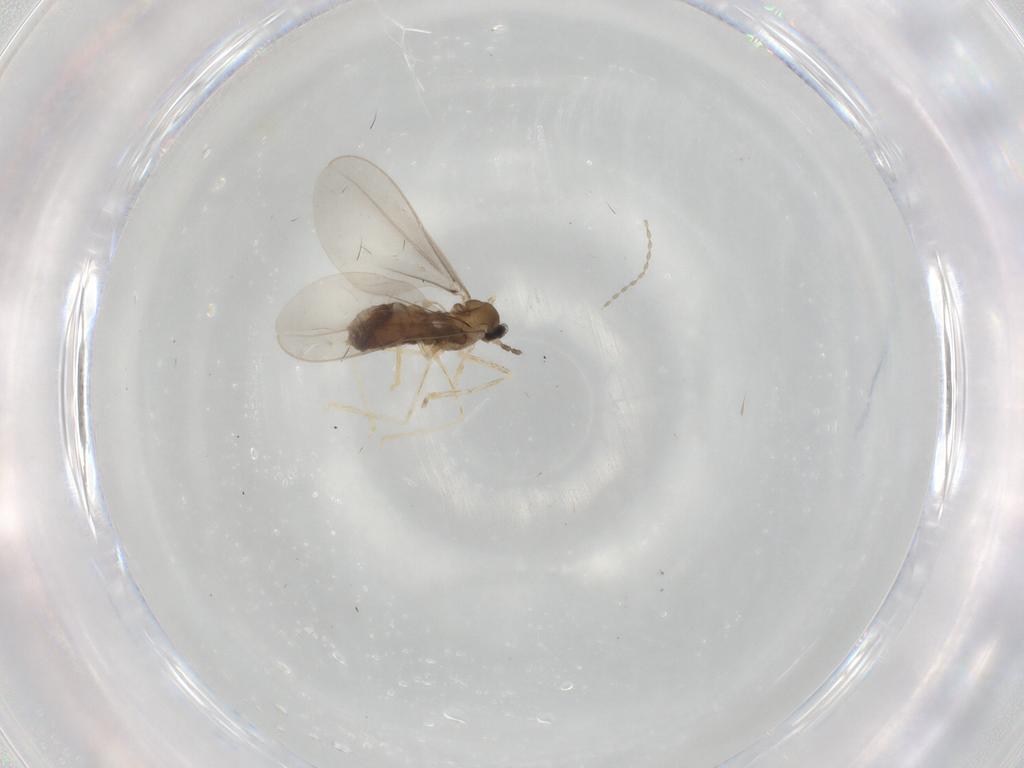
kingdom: Animalia
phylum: Arthropoda
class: Insecta
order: Diptera
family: Cecidomyiidae
